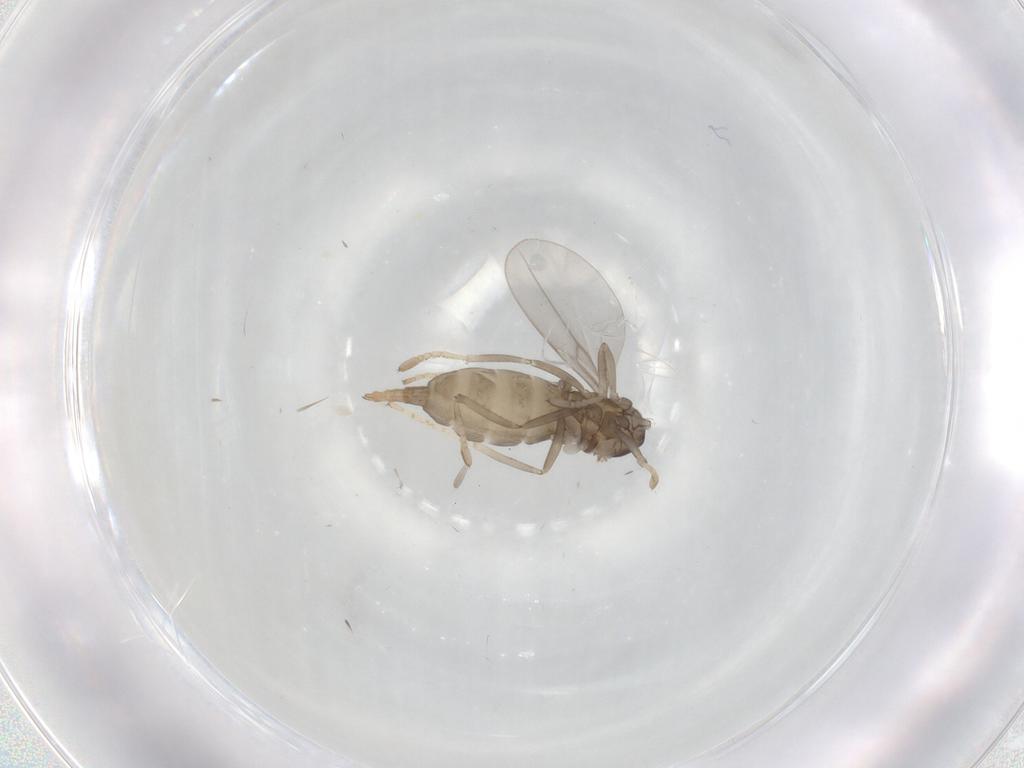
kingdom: Animalia
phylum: Arthropoda
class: Insecta
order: Diptera
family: Cecidomyiidae
